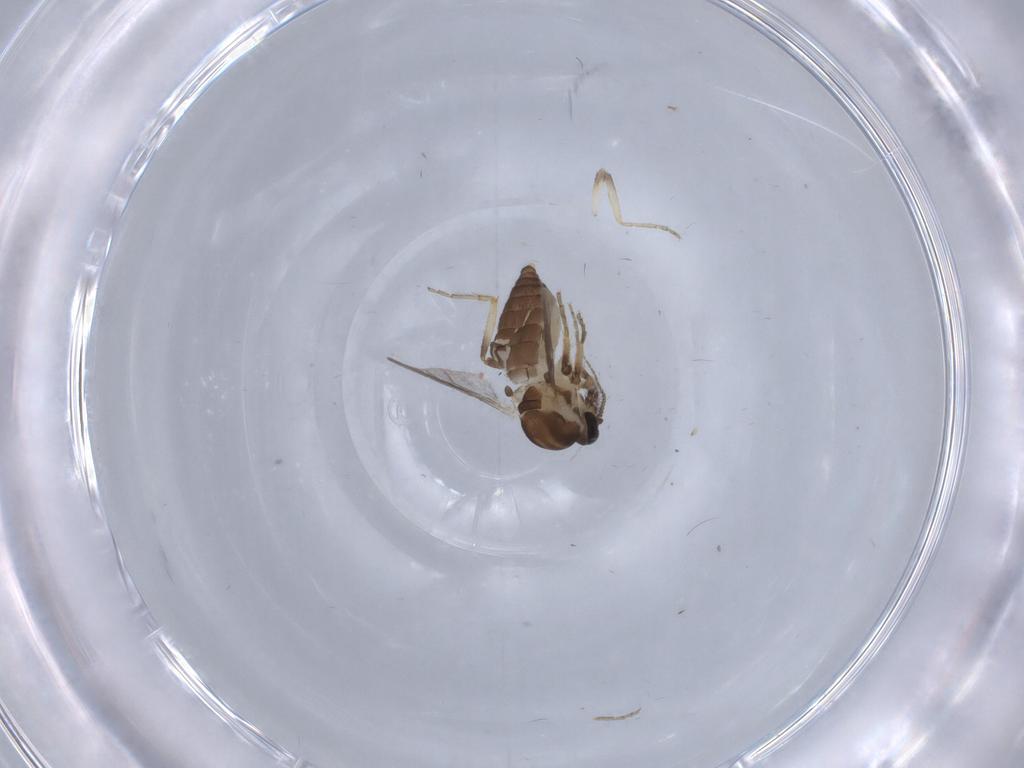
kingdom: Animalia
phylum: Arthropoda
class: Insecta
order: Diptera
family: Ceratopogonidae
